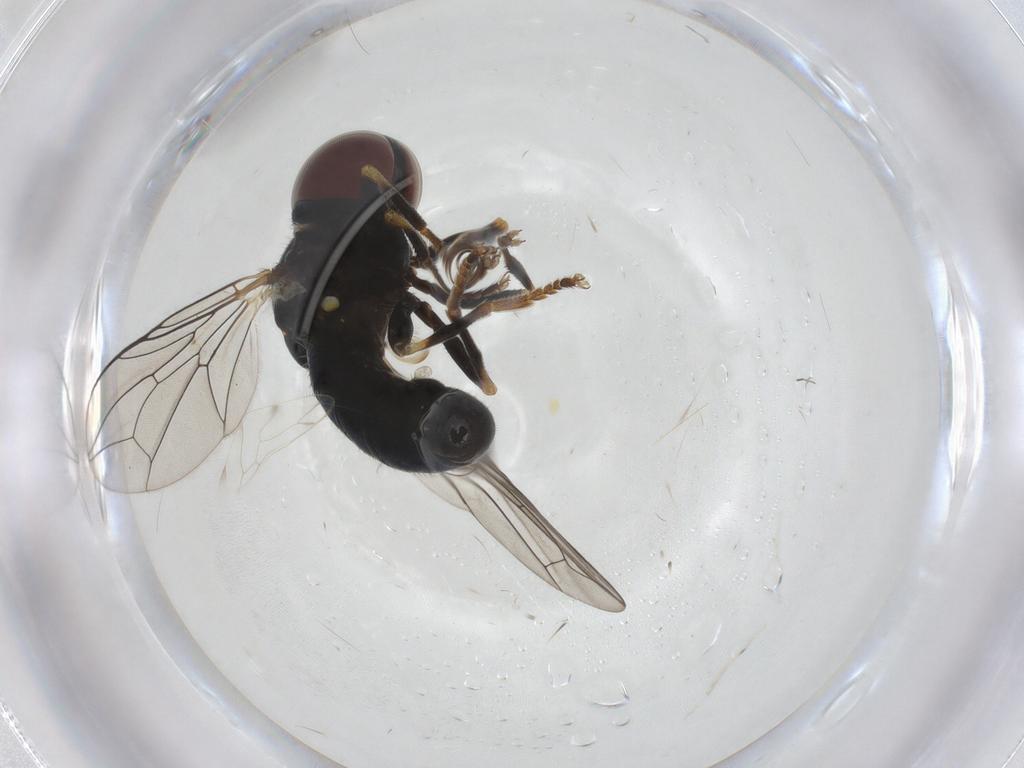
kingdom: Animalia
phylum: Arthropoda
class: Insecta
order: Diptera
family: Pipunculidae
